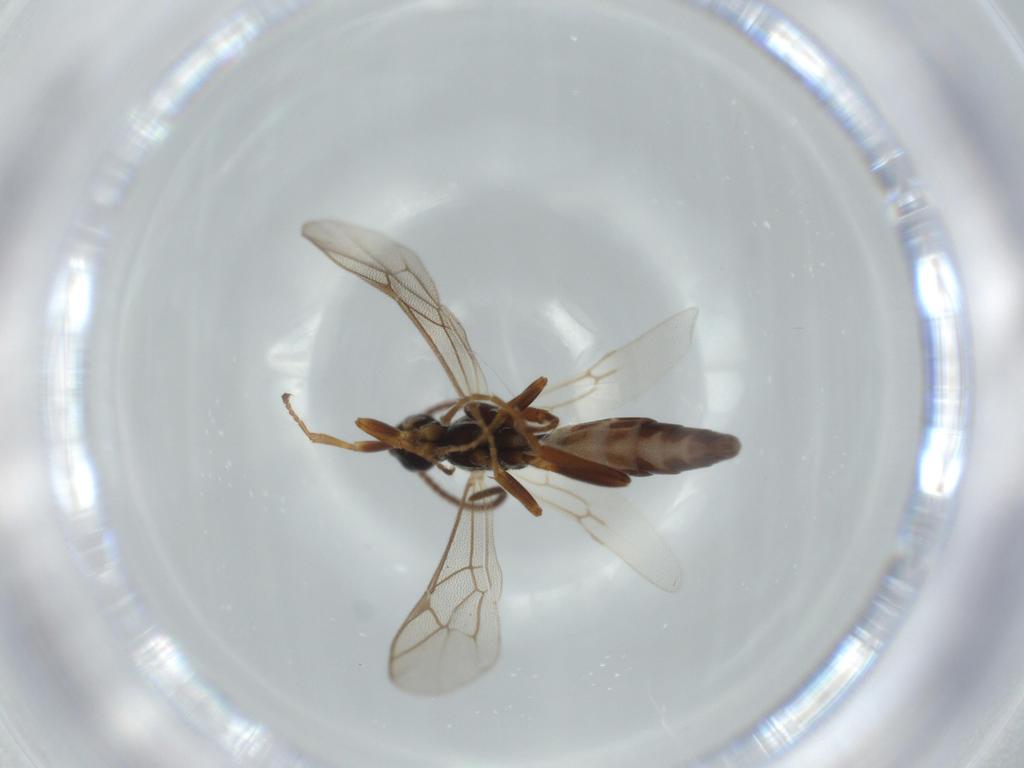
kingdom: Animalia
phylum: Arthropoda
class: Insecta
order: Hymenoptera
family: Ichneumonidae
